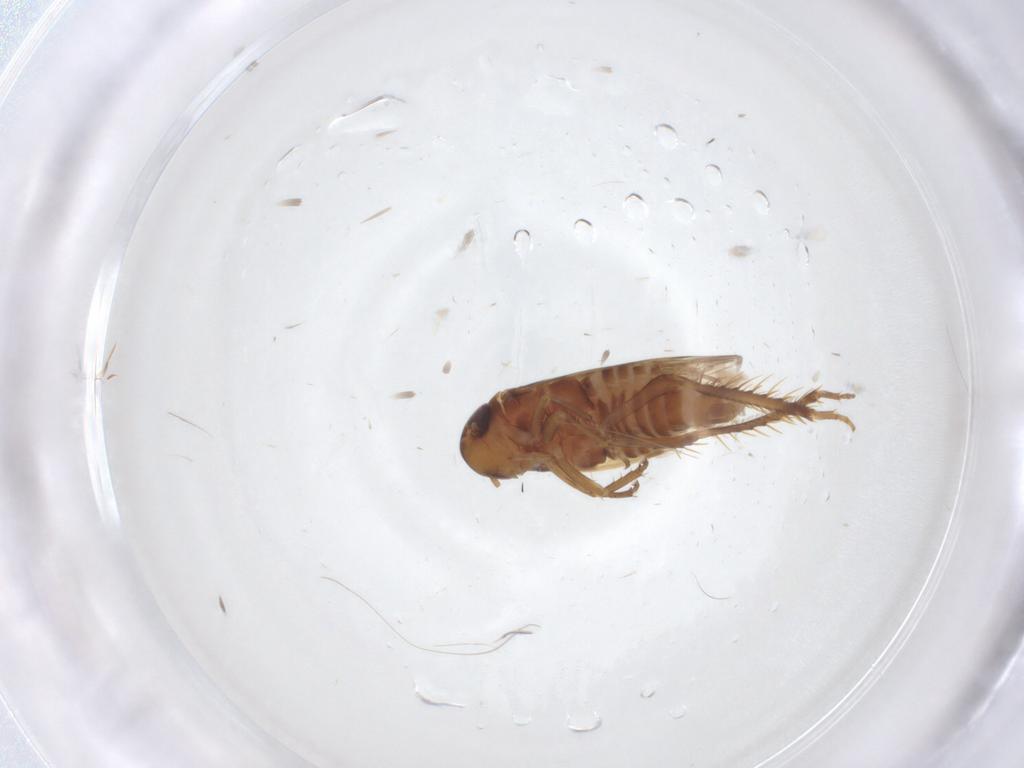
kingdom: Animalia
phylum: Arthropoda
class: Insecta
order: Hemiptera
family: Cicadellidae
